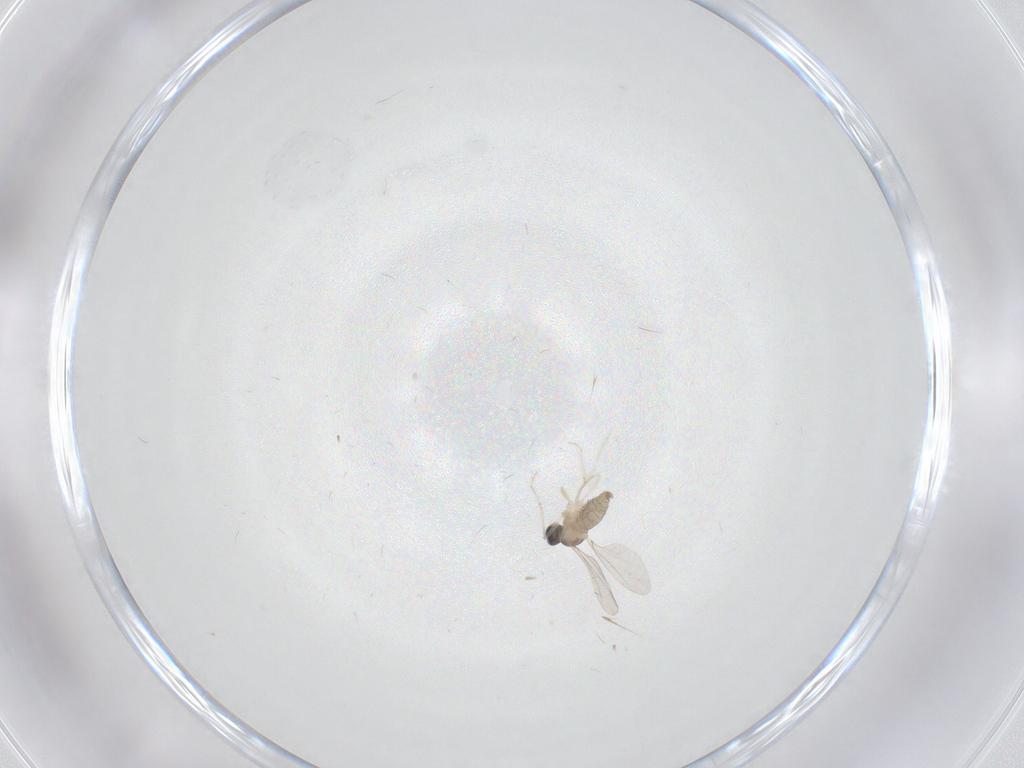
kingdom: Animalia
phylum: Arthropoda
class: Insecta
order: Diptera
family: Cecidomyiidae
